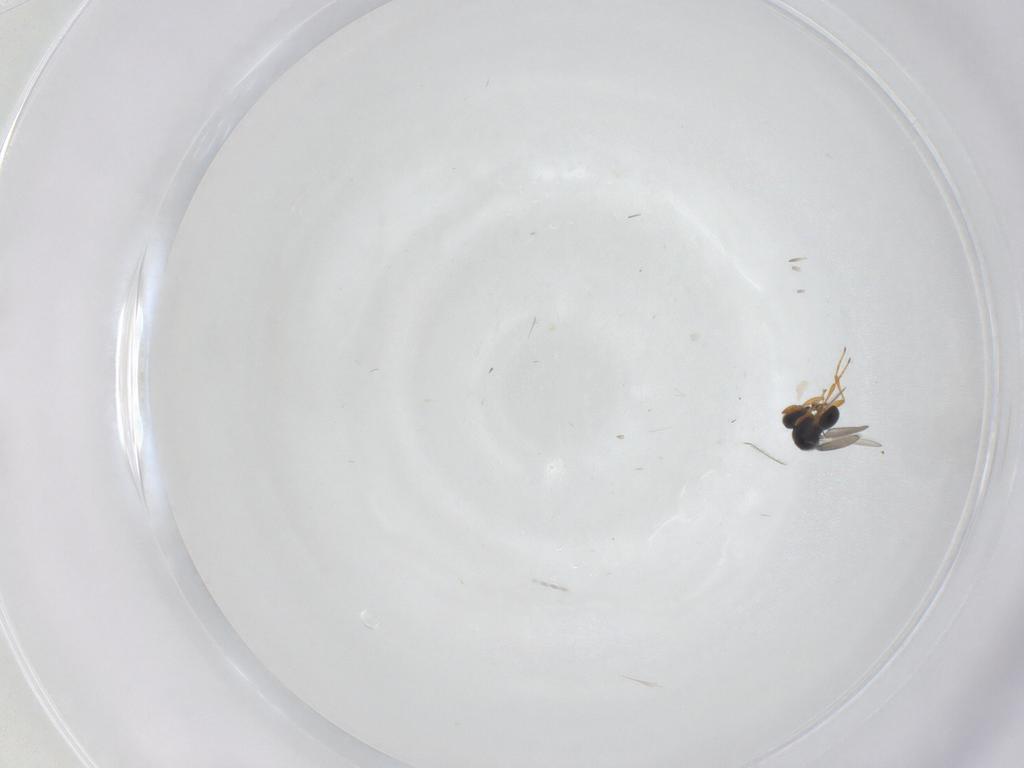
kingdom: Animalia
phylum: Arthropoda
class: Insecta
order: Hymenoptera
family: Platygastridae
